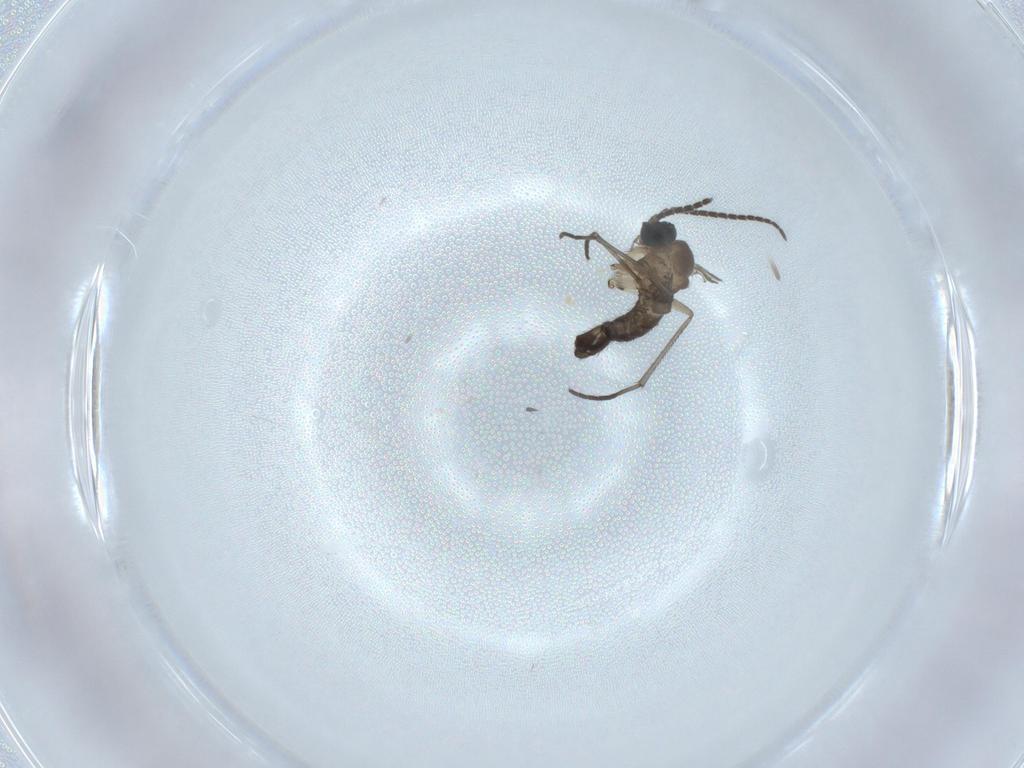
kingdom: Animalia
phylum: Arthropoda
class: Insecta
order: Diptera
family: Sciaridae
